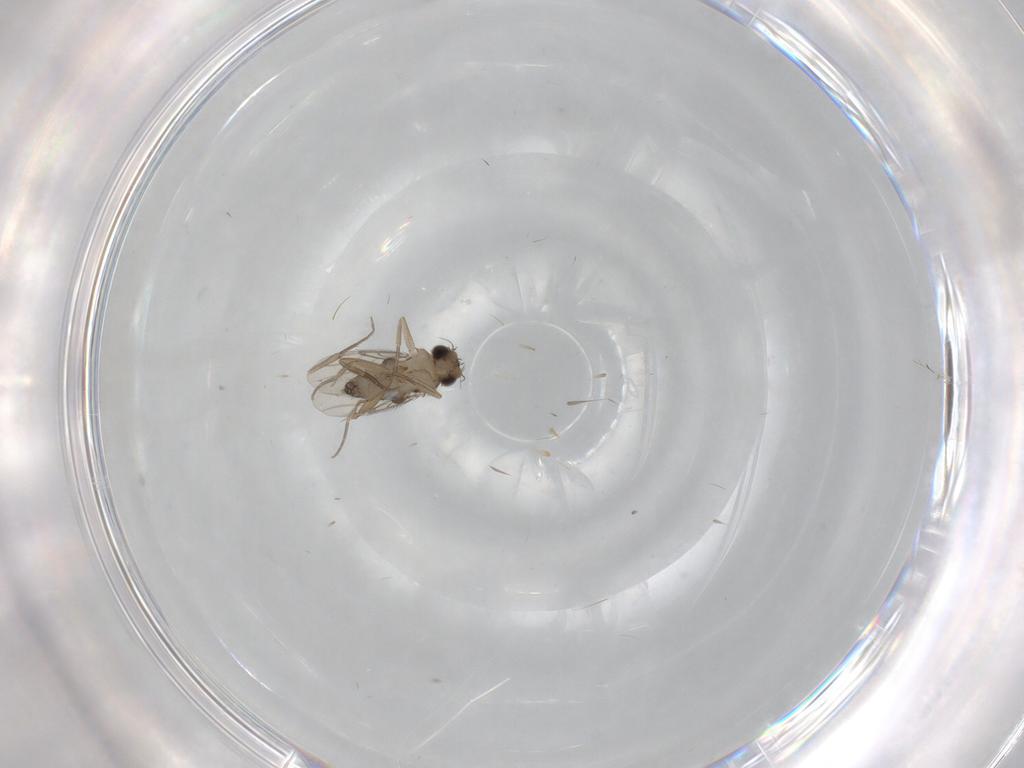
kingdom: Animalia
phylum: Arthropoda
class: Insecta
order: Diptera
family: Phoridae
